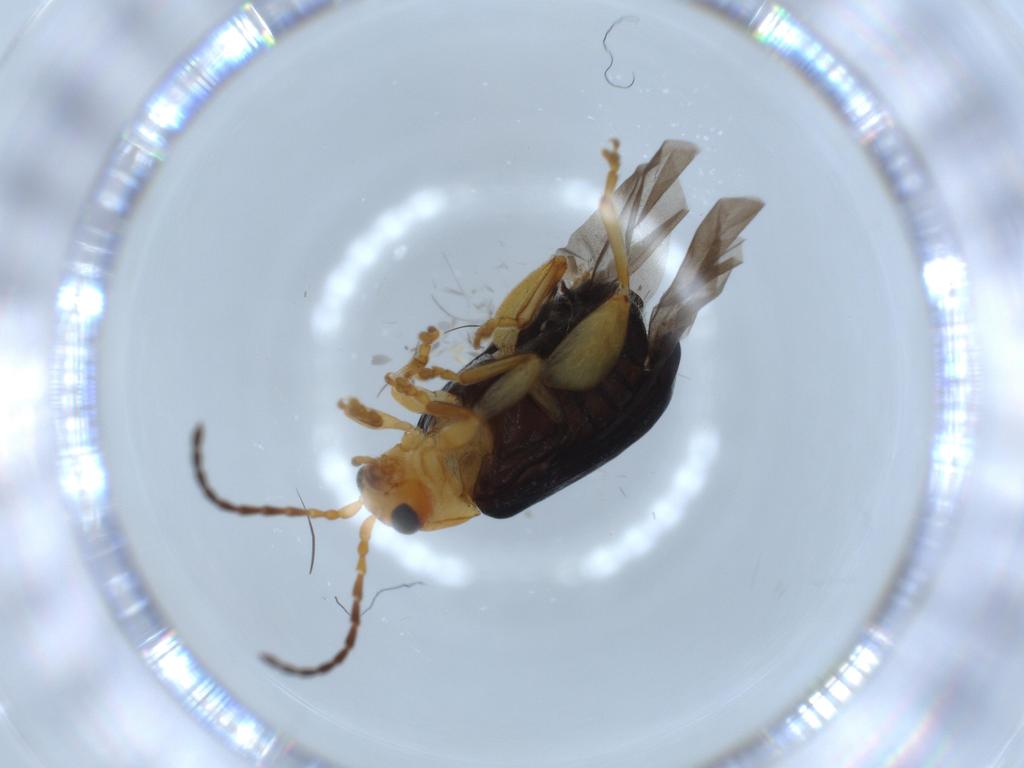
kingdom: Animalia
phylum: Arthropoda
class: Insecta
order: Coleoptera
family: Chrysomelidae
